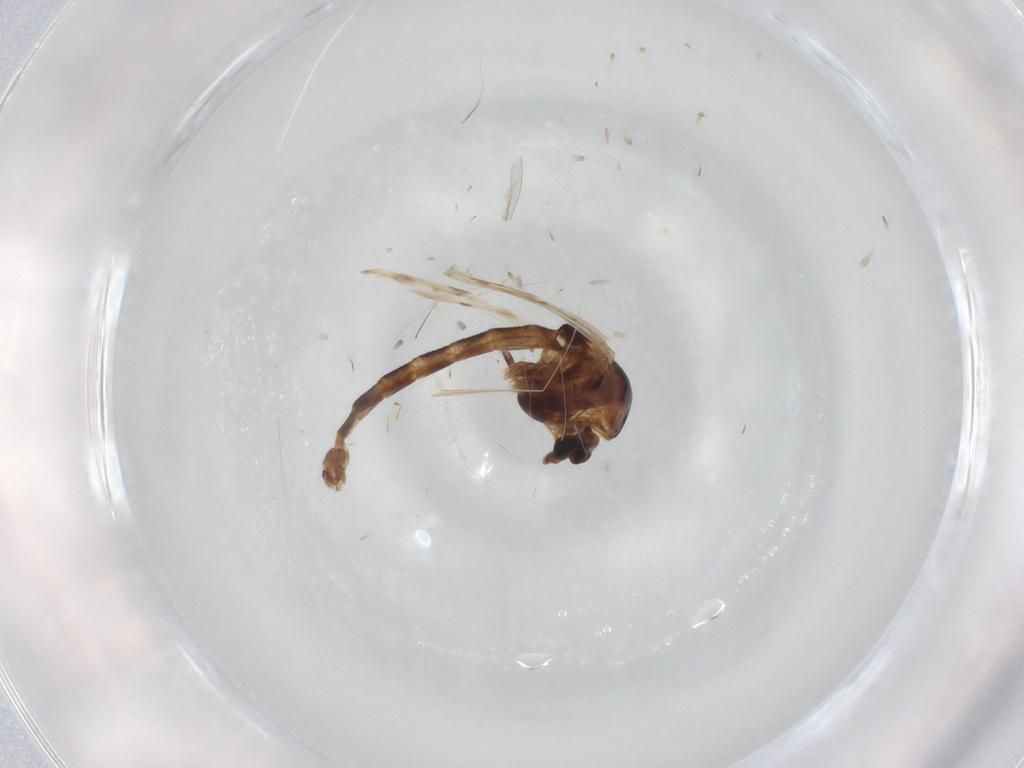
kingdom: Animalia
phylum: Arthropoda
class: Insecta
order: Diptera
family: Chironomidae
